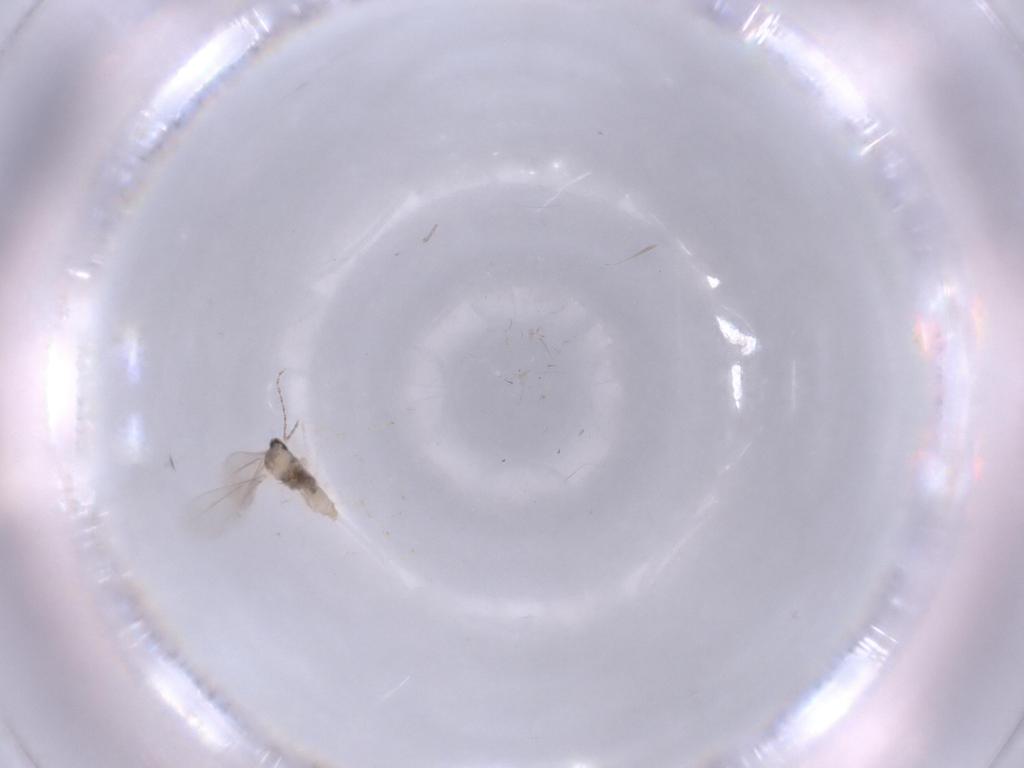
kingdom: Animalia
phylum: Arthropoda
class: Insecta
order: Diptera
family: Cecidomyiidae
